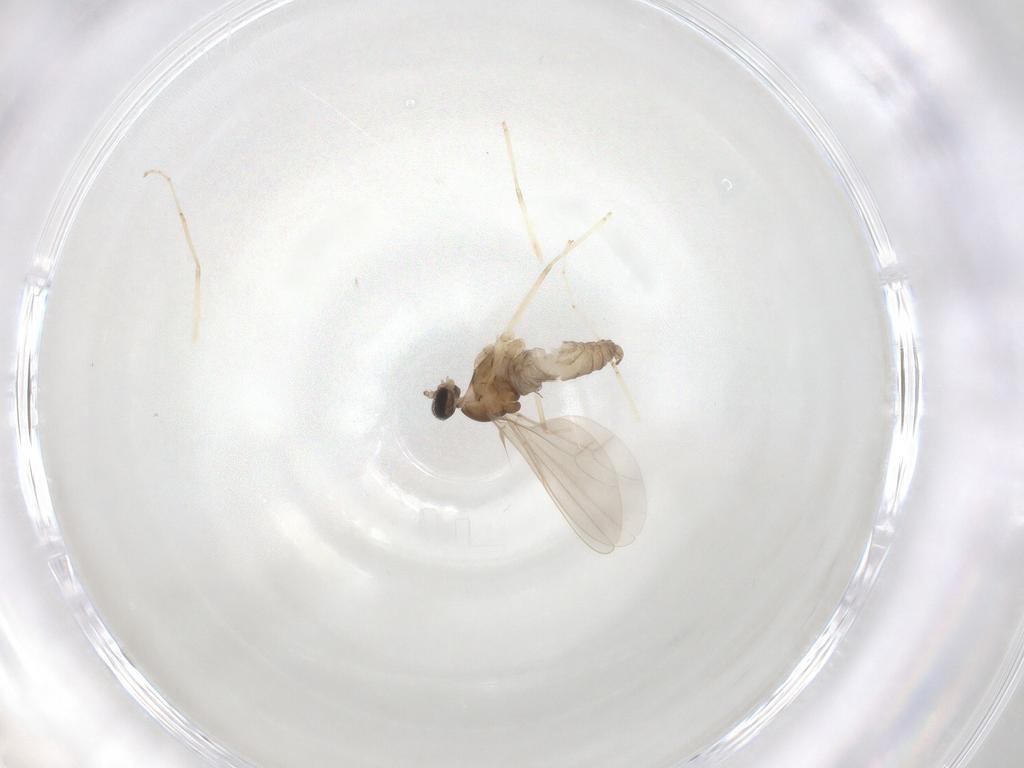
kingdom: Animalia
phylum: Arthropoda
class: Insecta
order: Diptera
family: Cecidomyiidae
